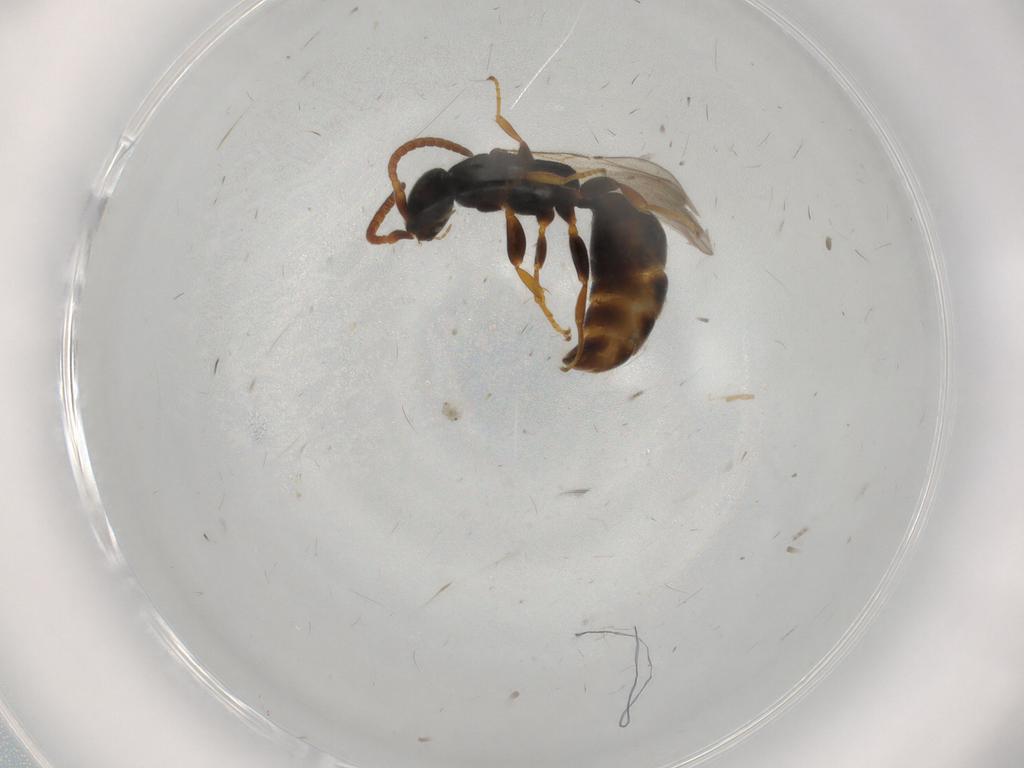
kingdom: Animalia
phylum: Arthropoda
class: Insecta
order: Hymenoptera
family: Bethylidae
